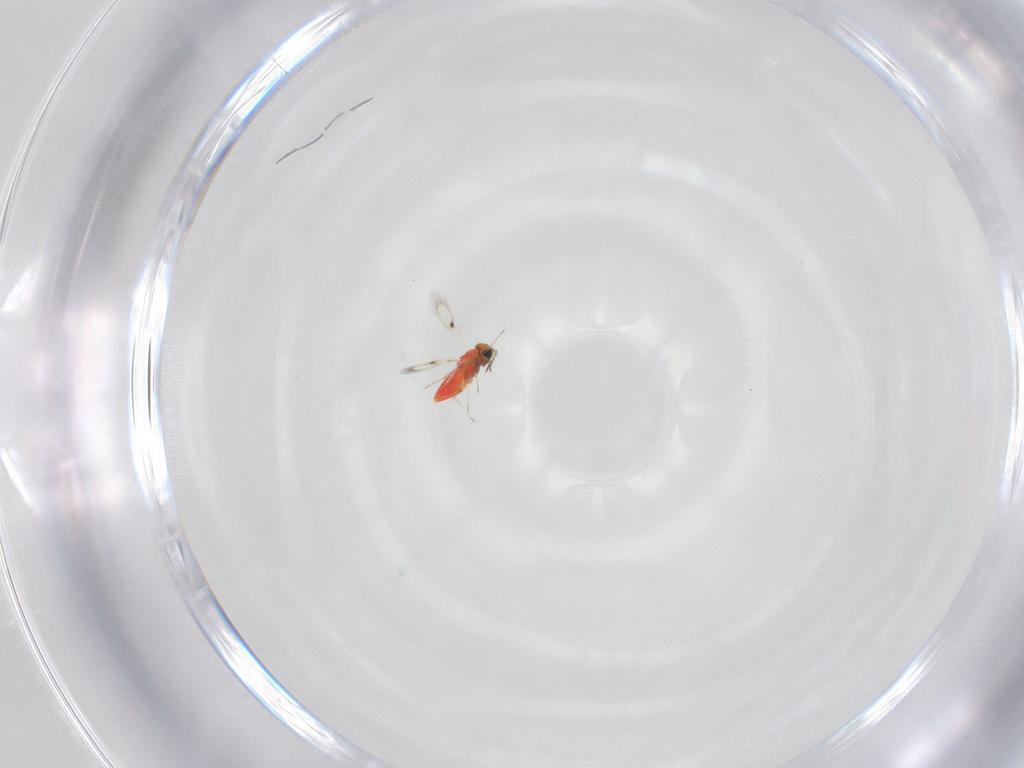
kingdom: Animalia
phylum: Arthropoda
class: Insecta
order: Hymenoptera
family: Trichogrammatidae
